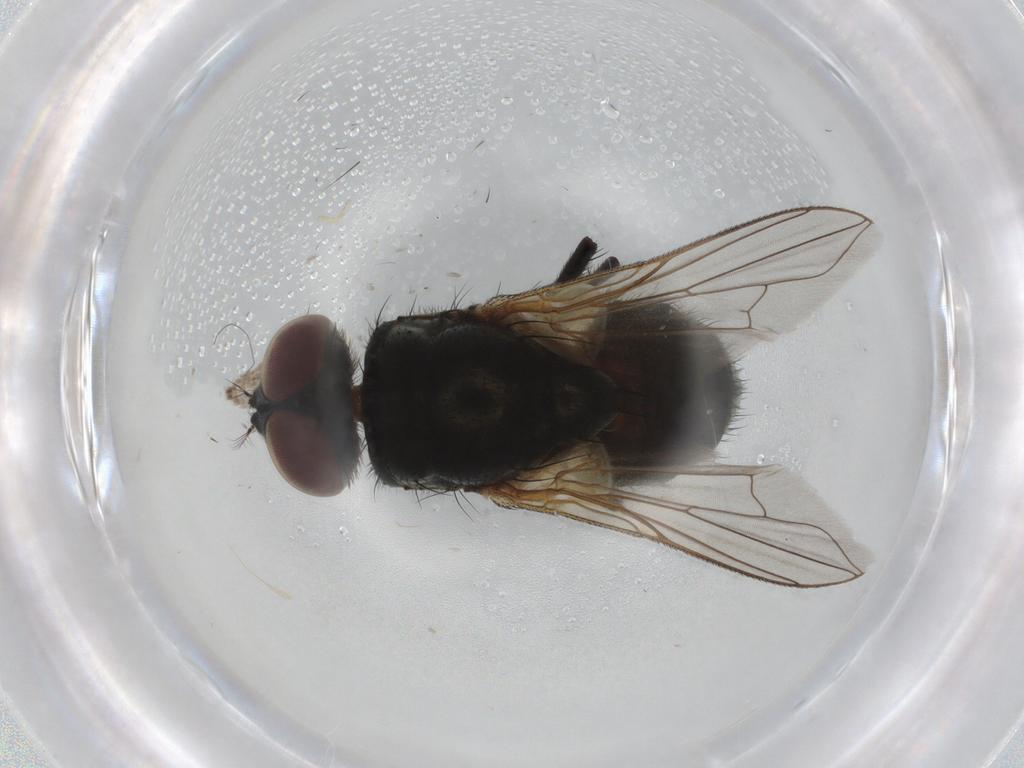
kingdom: Animalia
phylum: Arthropoda
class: Insecta
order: Diptera
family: Muscidae
